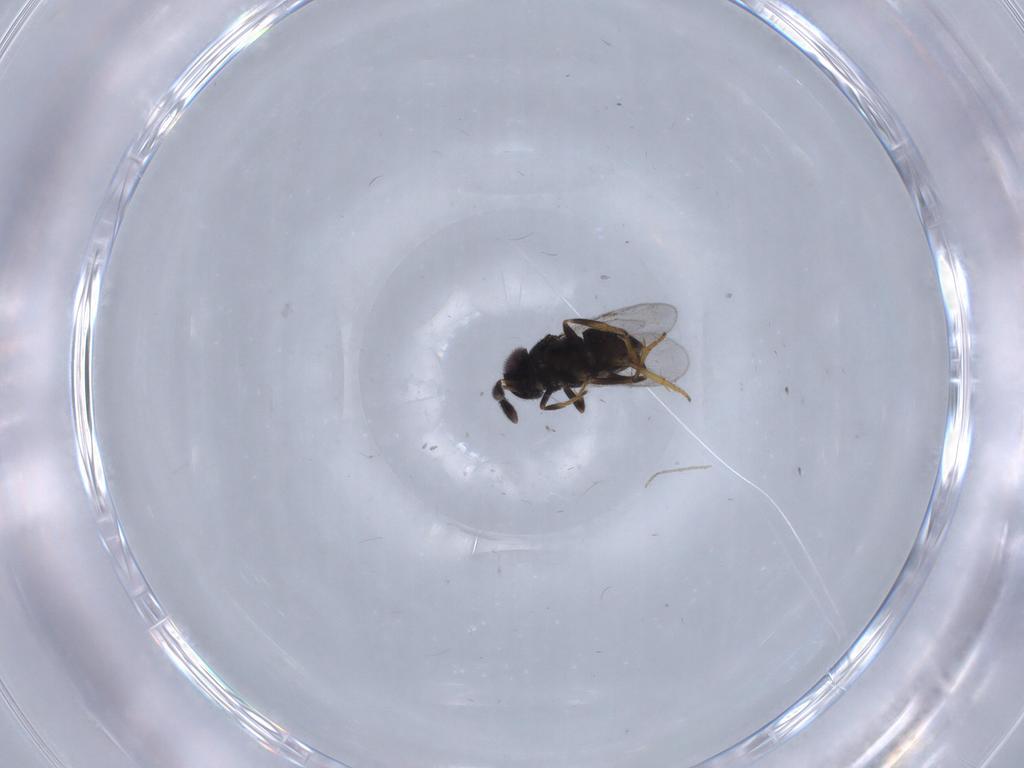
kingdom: Animalia
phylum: Arthropoda
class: Insecta
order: Diptera
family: Chironomidae
